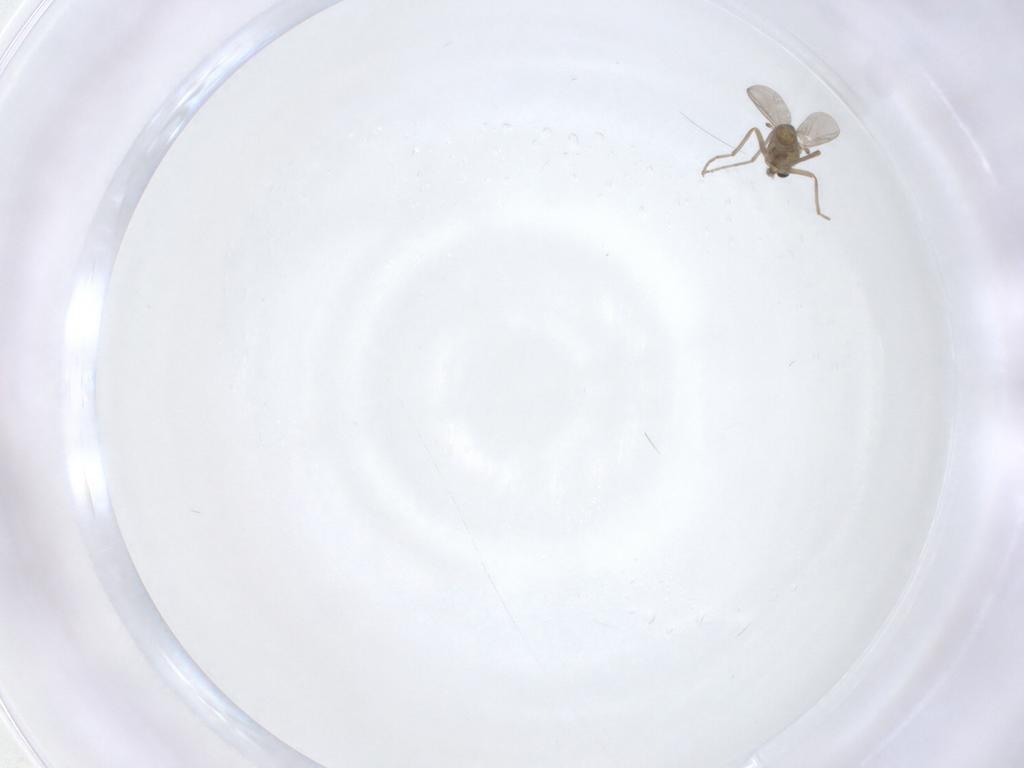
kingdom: Animalia
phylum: Arthropoda
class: Insecta
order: Diptera
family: Chironomidae
